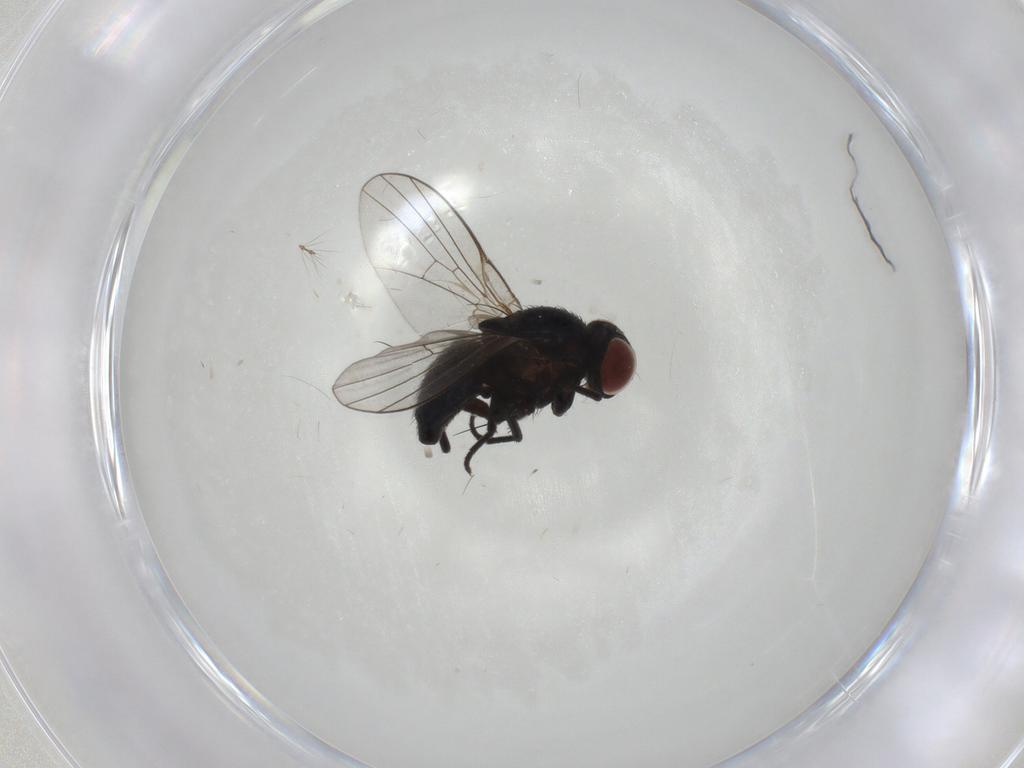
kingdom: Animalia
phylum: Arthropoda
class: Insecta
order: Diptera
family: Agromyzidae
